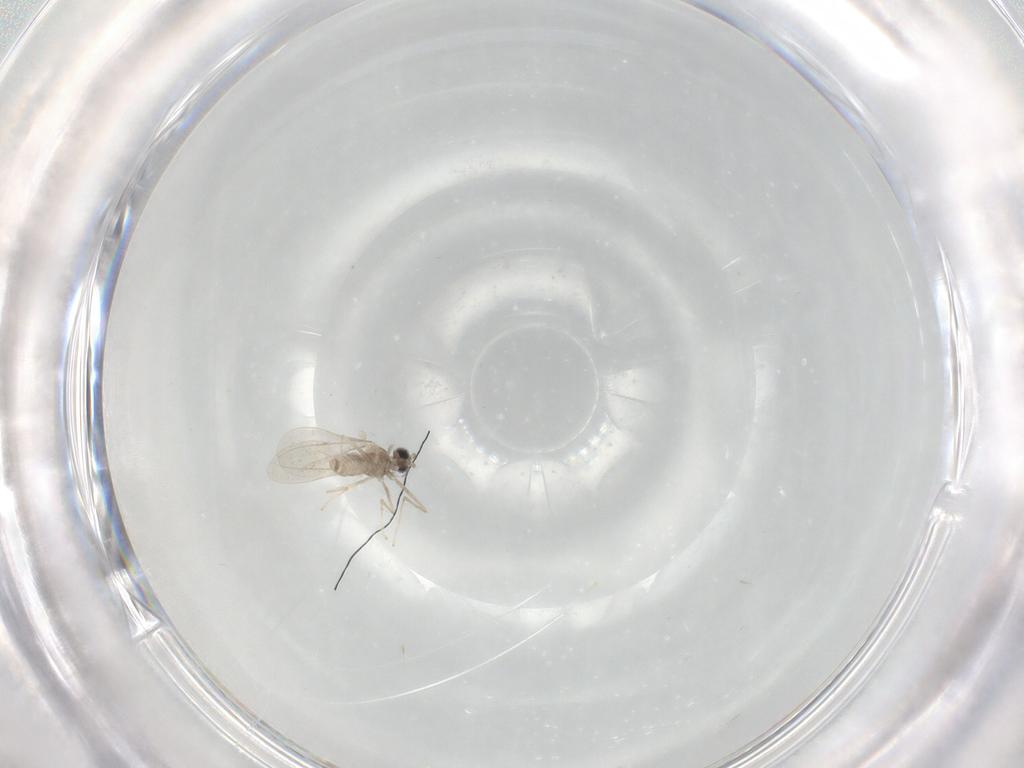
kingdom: Animalia
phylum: Arthropoda
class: Insecta
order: Diptera
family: Cecidomyiidae
